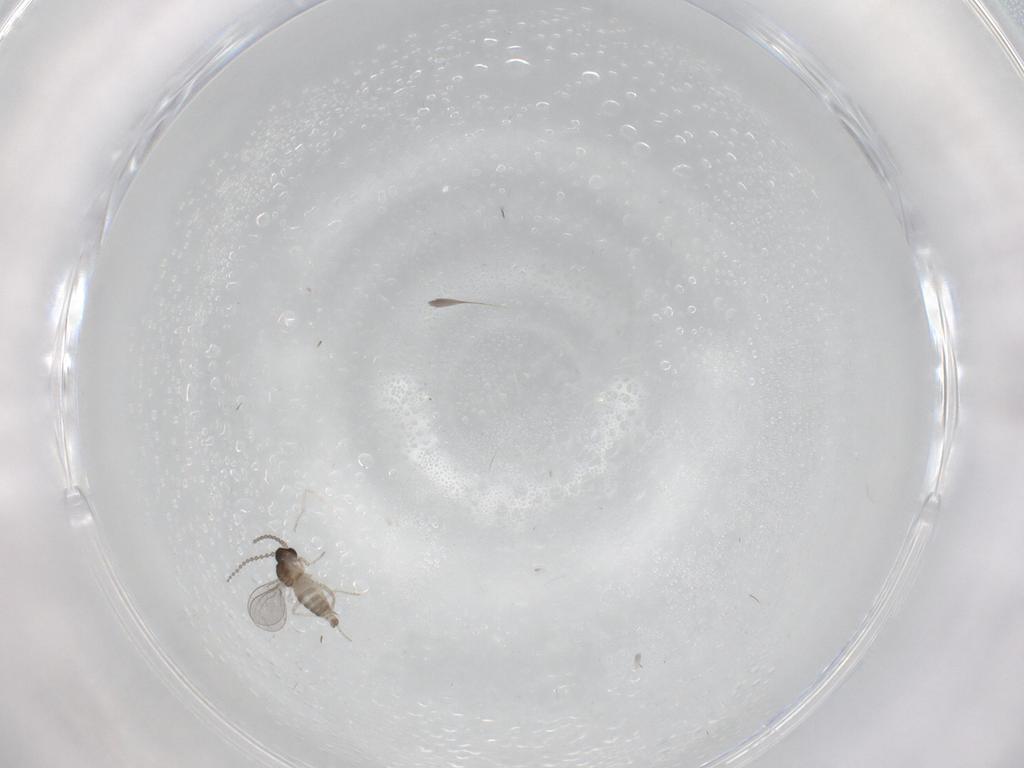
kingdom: Animalia
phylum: Arthropoda
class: Insecta
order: Diptera
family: Cecidomyiidae
